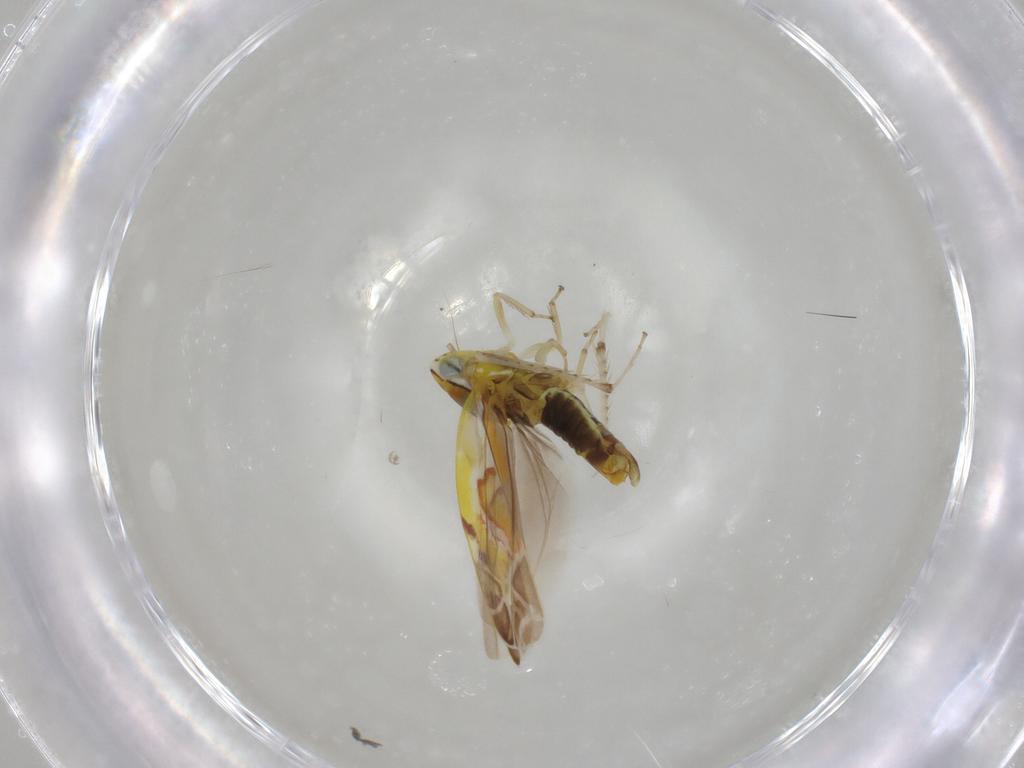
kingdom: Animalia
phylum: Arthropoda
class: Insecta
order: Hemiptera
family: Cicadellidae
